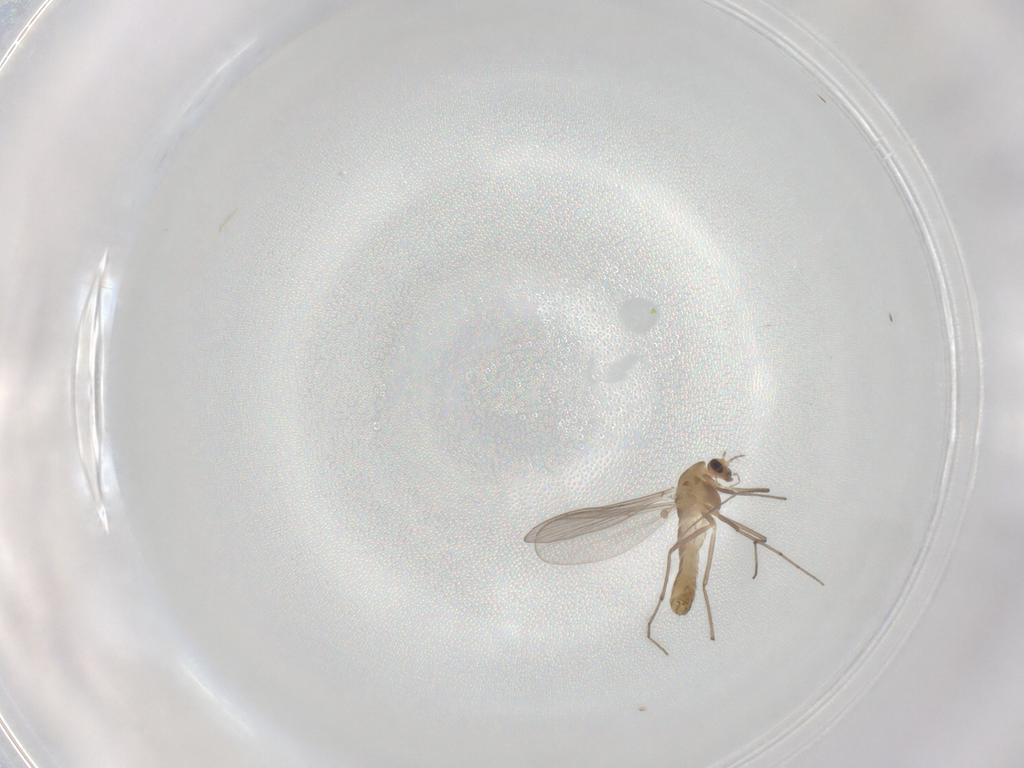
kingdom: Animalia
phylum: Arthropoda
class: Insecta
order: Diptera
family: Chironomidae
